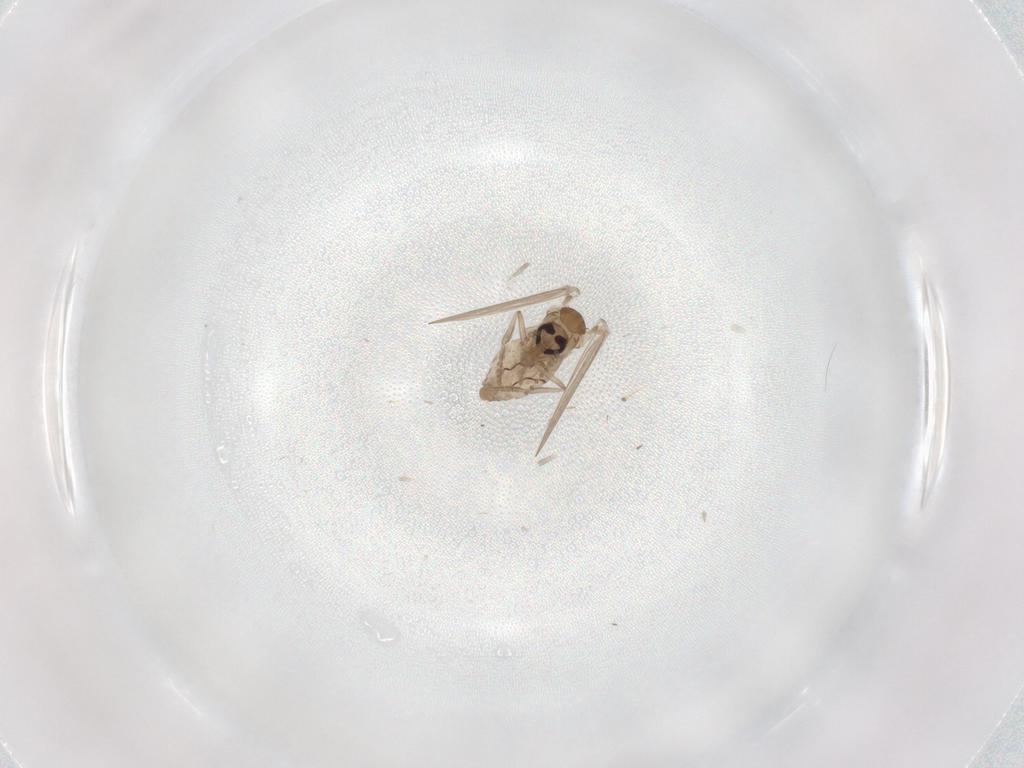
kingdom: Animalia
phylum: Arthropoda
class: Insecta
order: Diptera
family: Psychodidae
